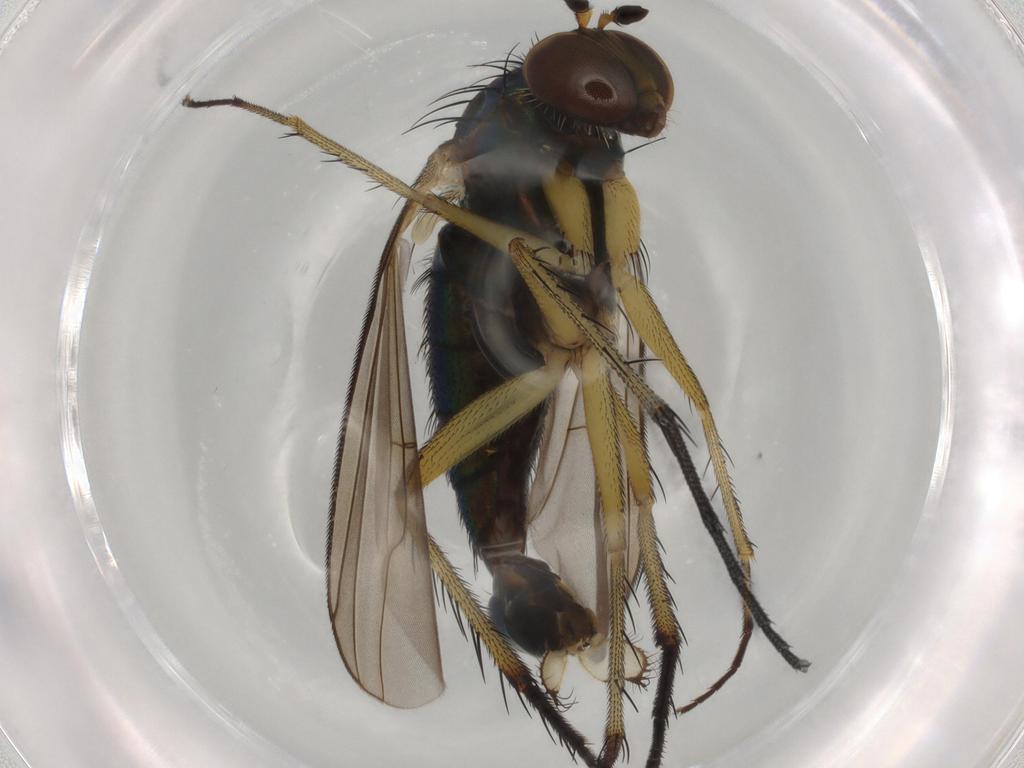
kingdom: Animalia
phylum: Arthropoda
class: Insecta
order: Diptera
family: Dolichopodidae
